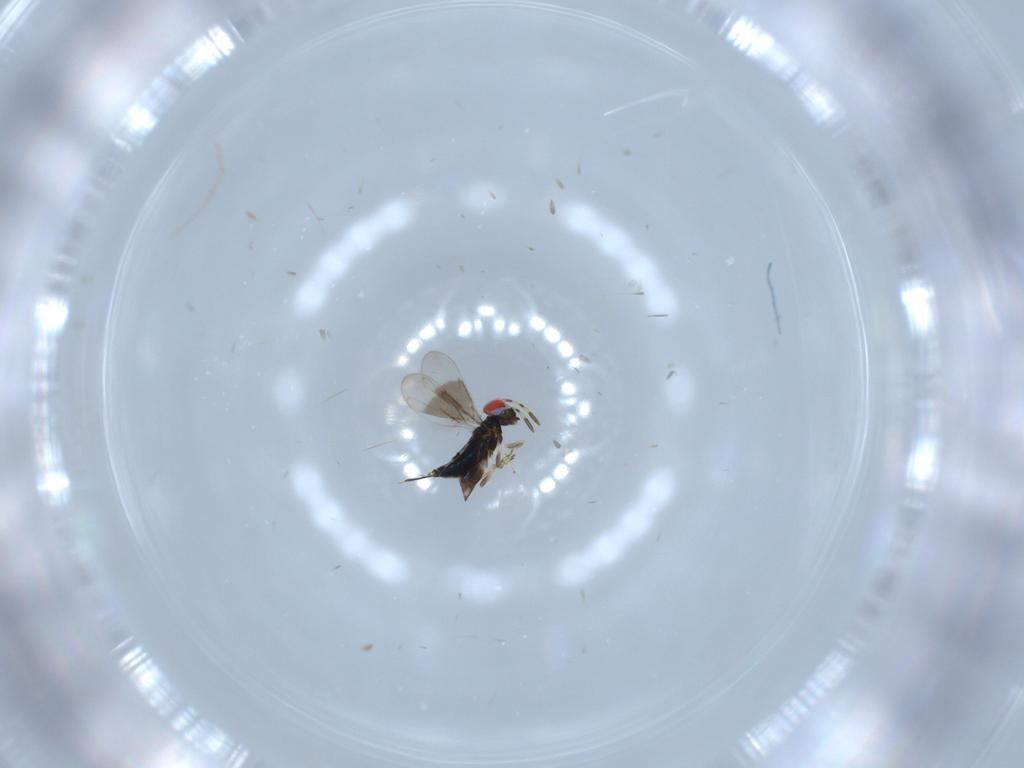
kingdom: Animalia
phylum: Arthropoda
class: Insecta
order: Hymenoptera
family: Azotidae
